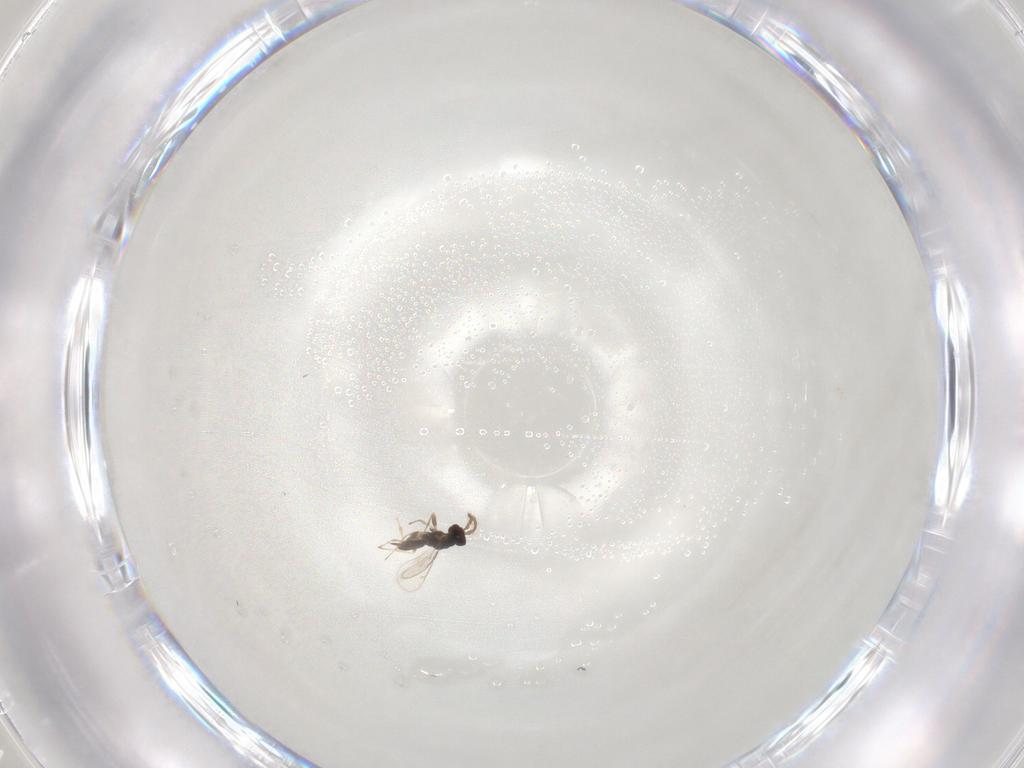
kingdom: Animalia
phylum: Arthropoda
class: Insecta
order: Hymenoptera
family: Eulophidae
